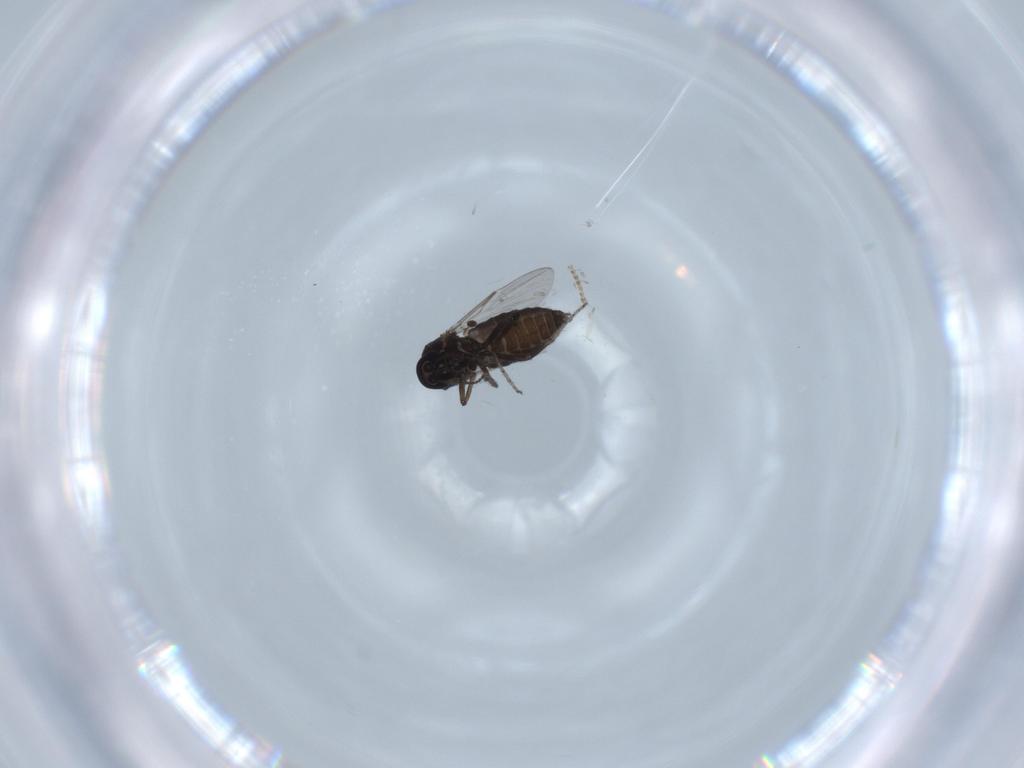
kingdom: Animalia
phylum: Arthropoda
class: Insecta
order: Diptera
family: Ceratopogonidae
